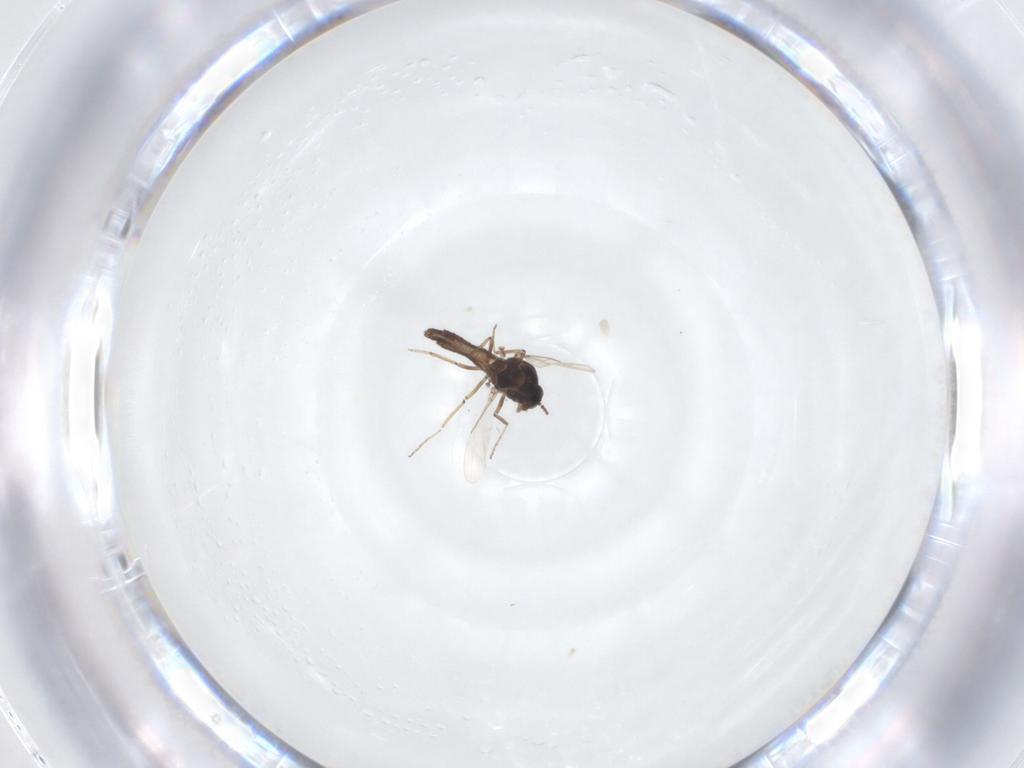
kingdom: Animalia
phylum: Arthropoda
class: Insecta
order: Diptera
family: Ceratopogonidae
